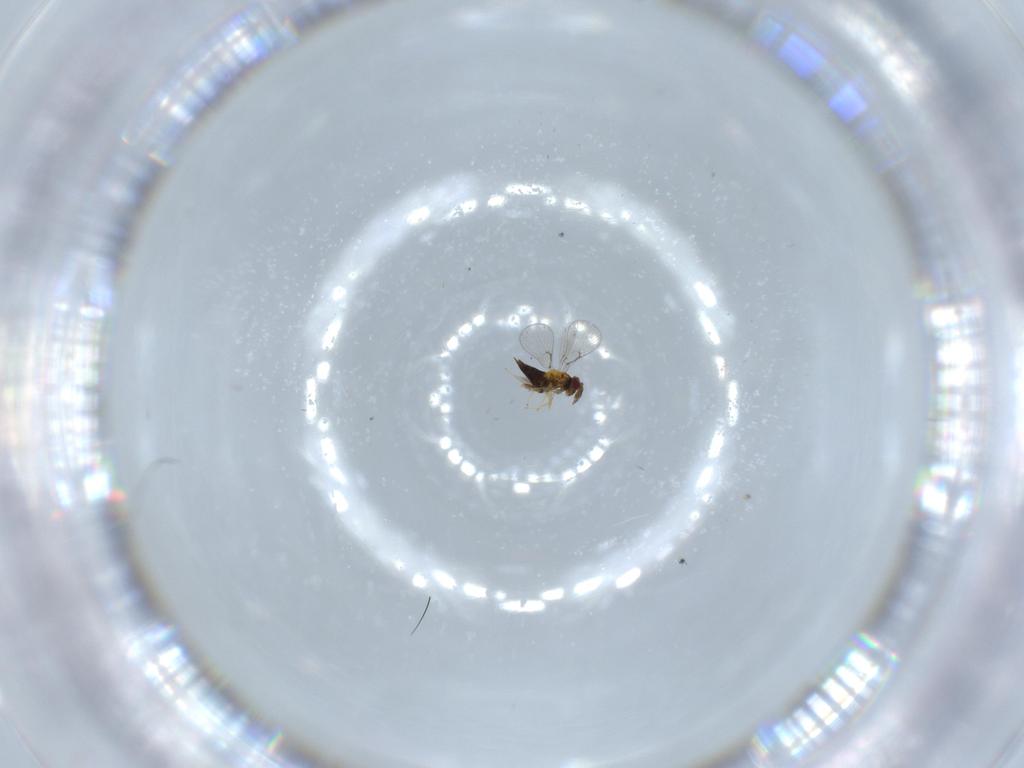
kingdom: Animalia
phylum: Arthropoda
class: Insecta
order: Hymenoptera
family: Trichogrammatidae
